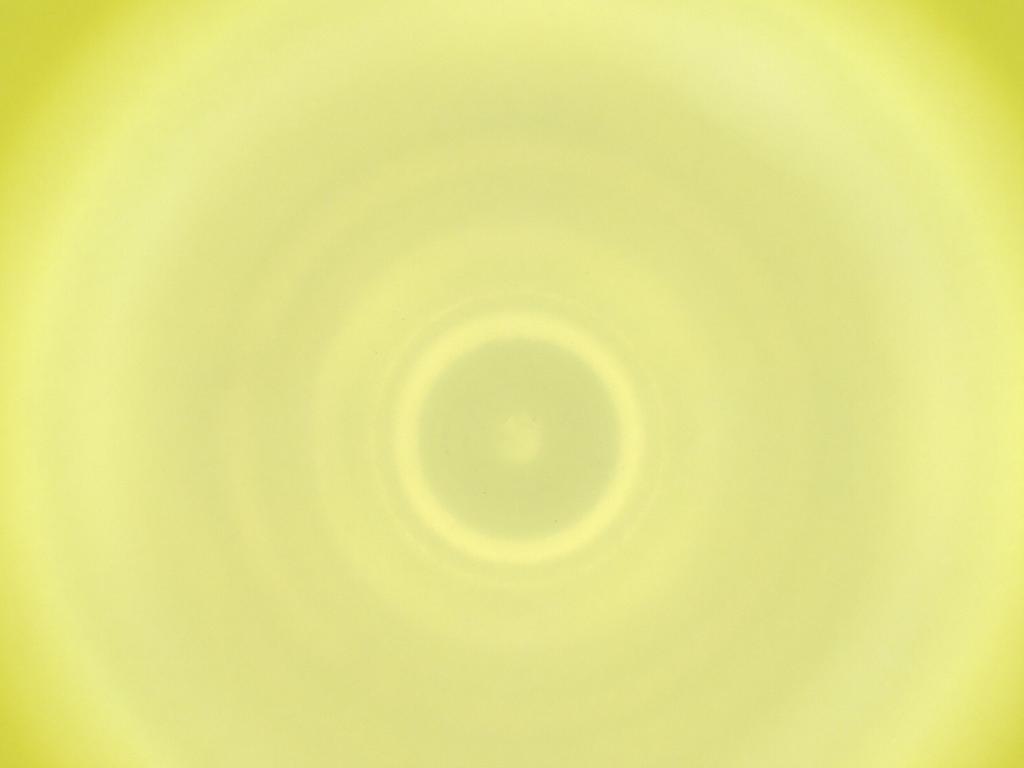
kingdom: Animalia
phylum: Arthropoda
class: Insecta
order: Diptera
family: Cecidomyiidae
